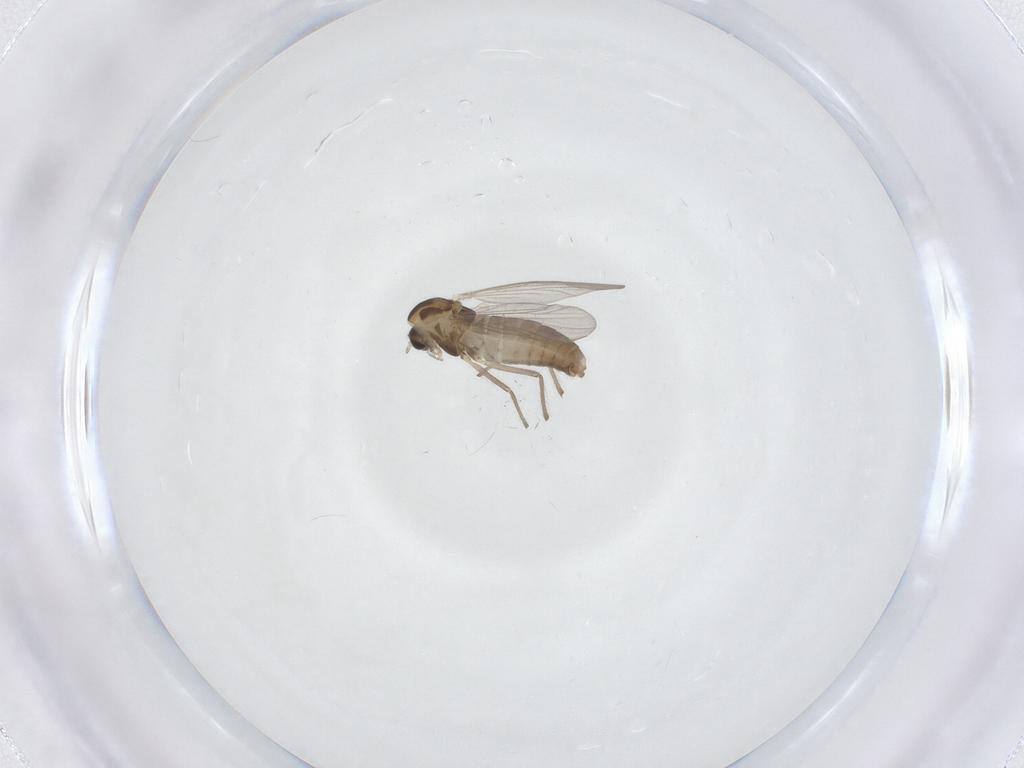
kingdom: Animalia
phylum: Arthropoda
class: Insecta
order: Diptera
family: Chironomidae
